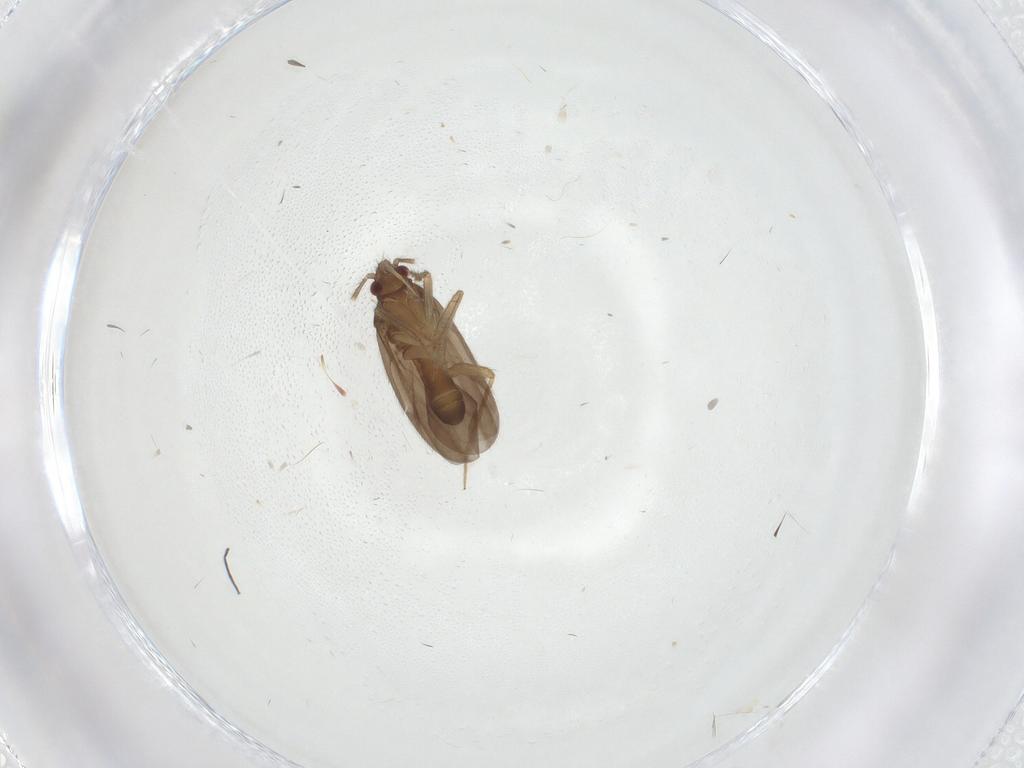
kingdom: Animalia
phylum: Arthropoda
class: Insecta
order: Hemiptera
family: Ceratocombidae
